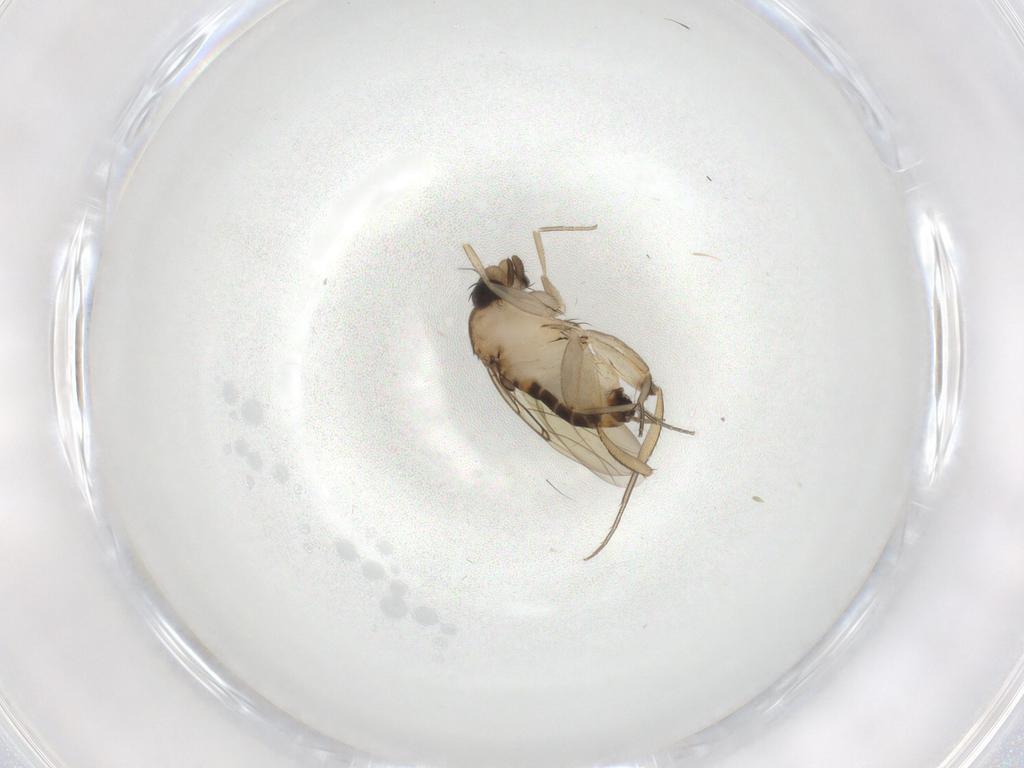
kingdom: Animalia
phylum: Arthropoda
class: Insecta
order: Diptera
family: Phoridae
